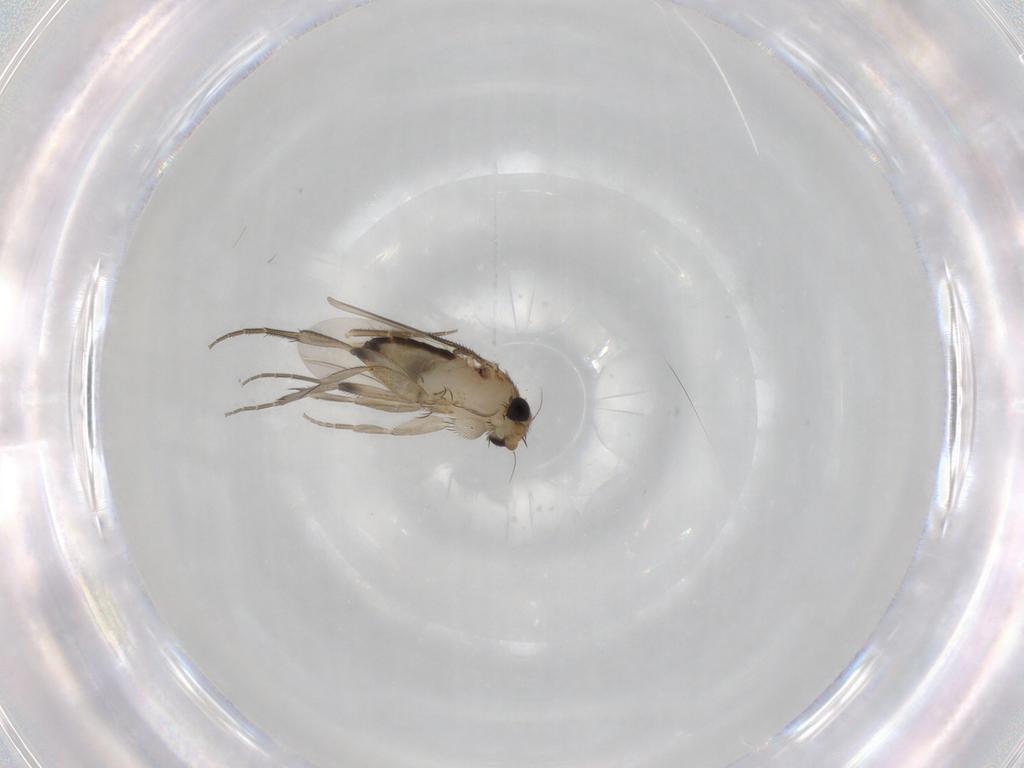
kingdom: Animalia
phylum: Arthropoda
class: Insecta
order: Diptera
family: Phoridae
